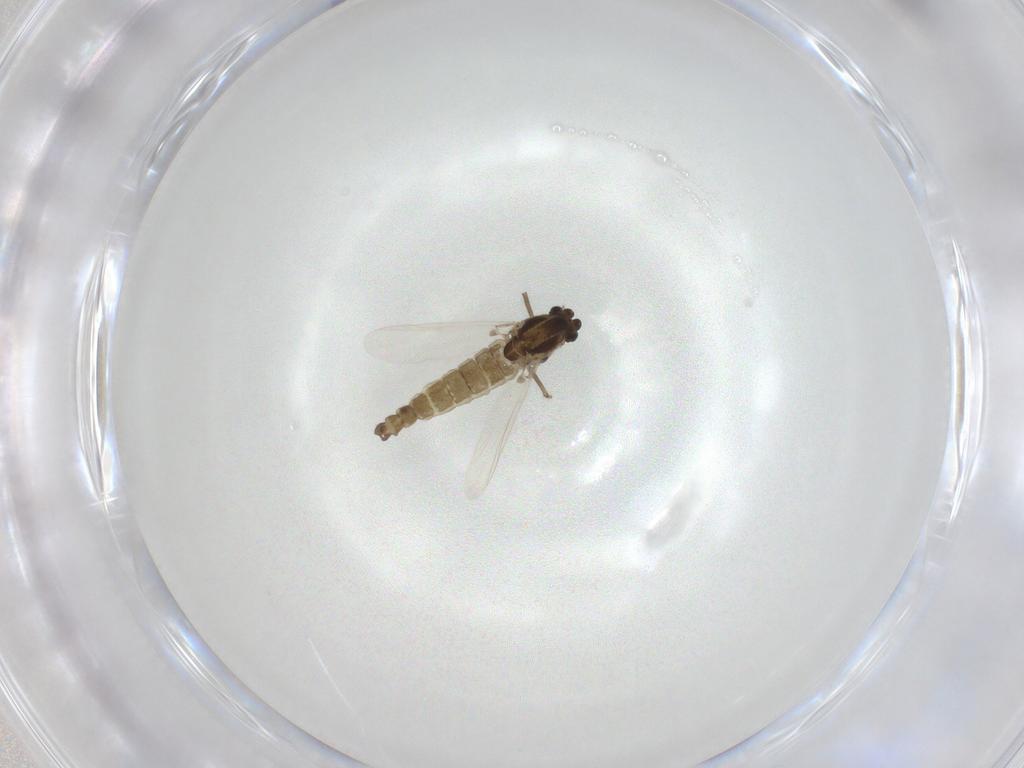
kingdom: Animalia
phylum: Arthropoda
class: Insecta
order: Diptera
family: Chironomidae
